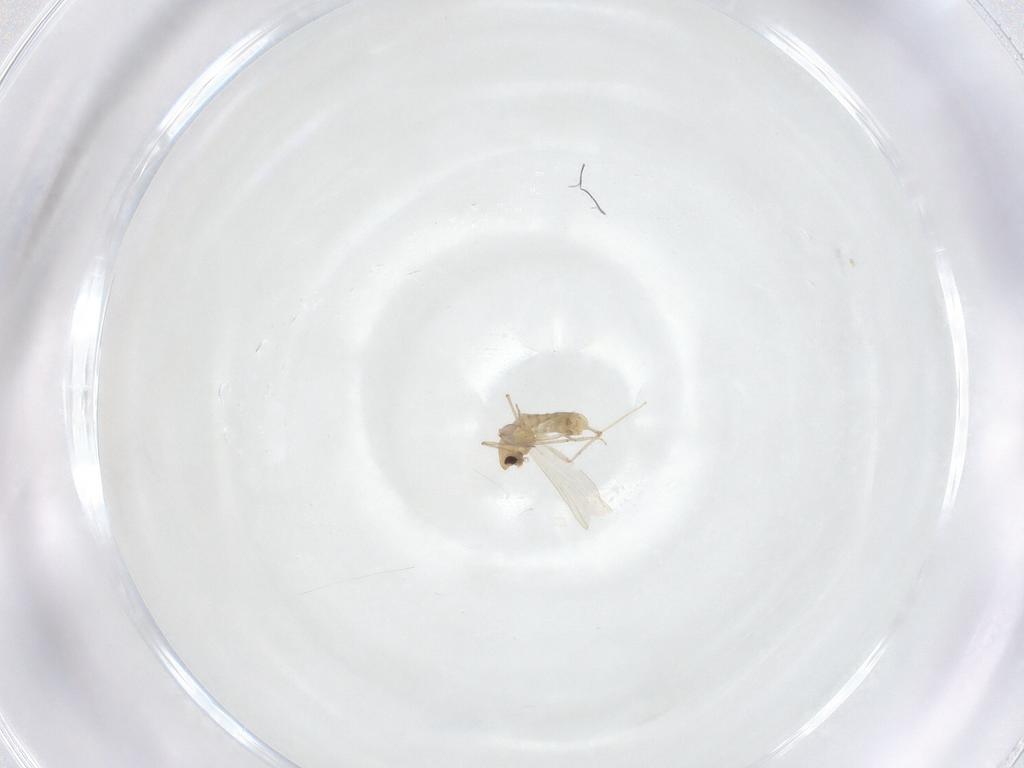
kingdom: Animalia
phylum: Arthropoda
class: Insecta
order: Diptera
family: Chironomidae
